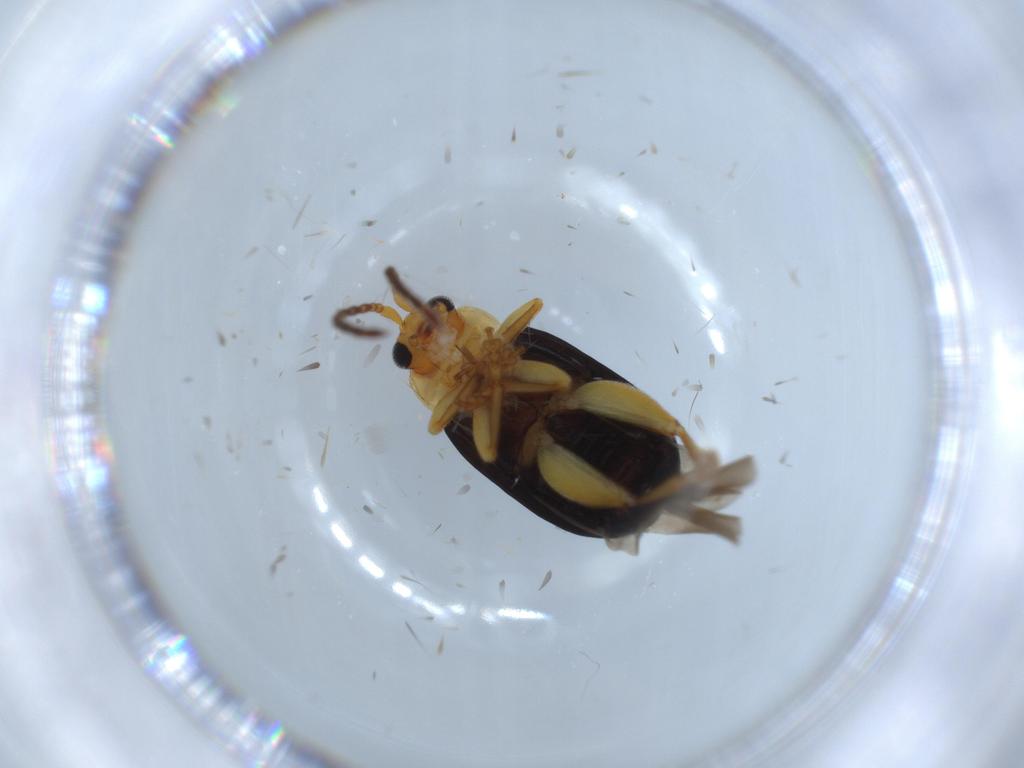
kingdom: Animalia
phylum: Arthropoda
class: Insecta
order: Coleoptera
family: Chrysomelidae
